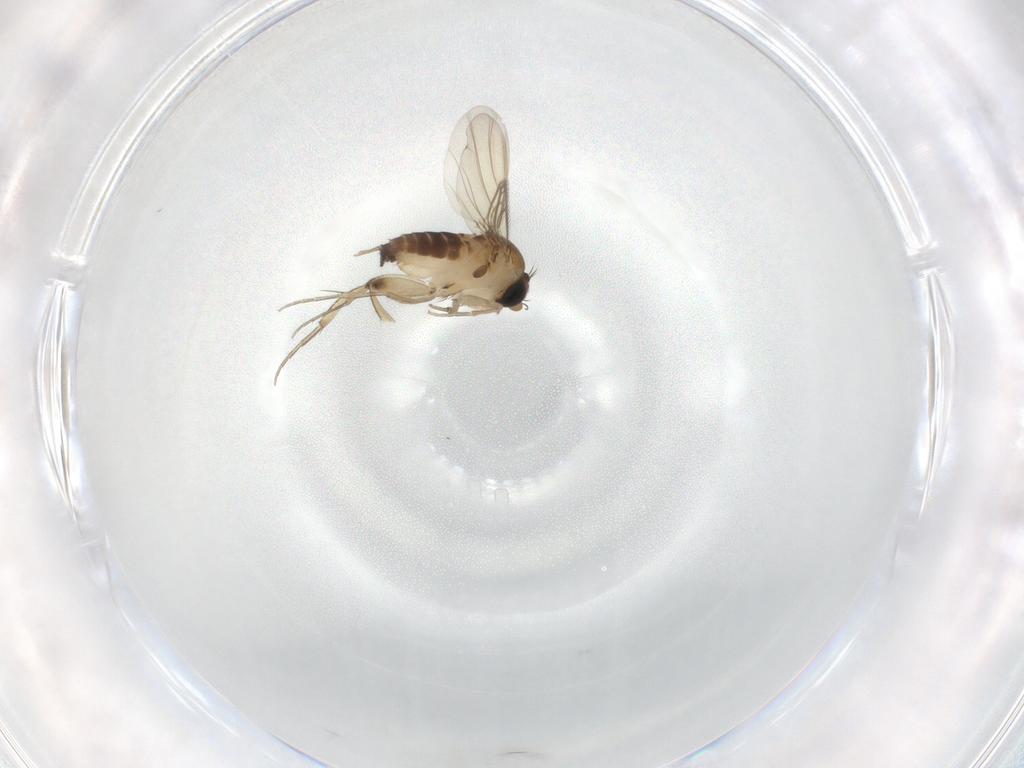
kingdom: Animalia
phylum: Arthropoda
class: Insecta
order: Diptera
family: Phoridae
